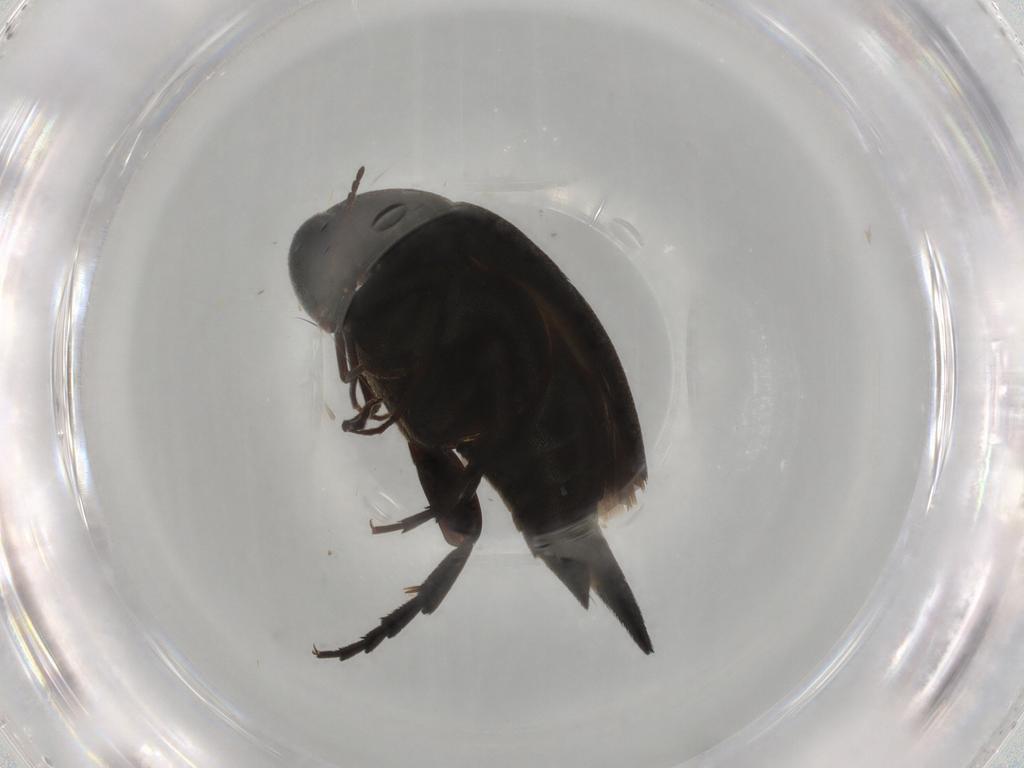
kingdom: Animalia
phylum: Arthropoda
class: Insecta
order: Coleoptera
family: Mordellidae
